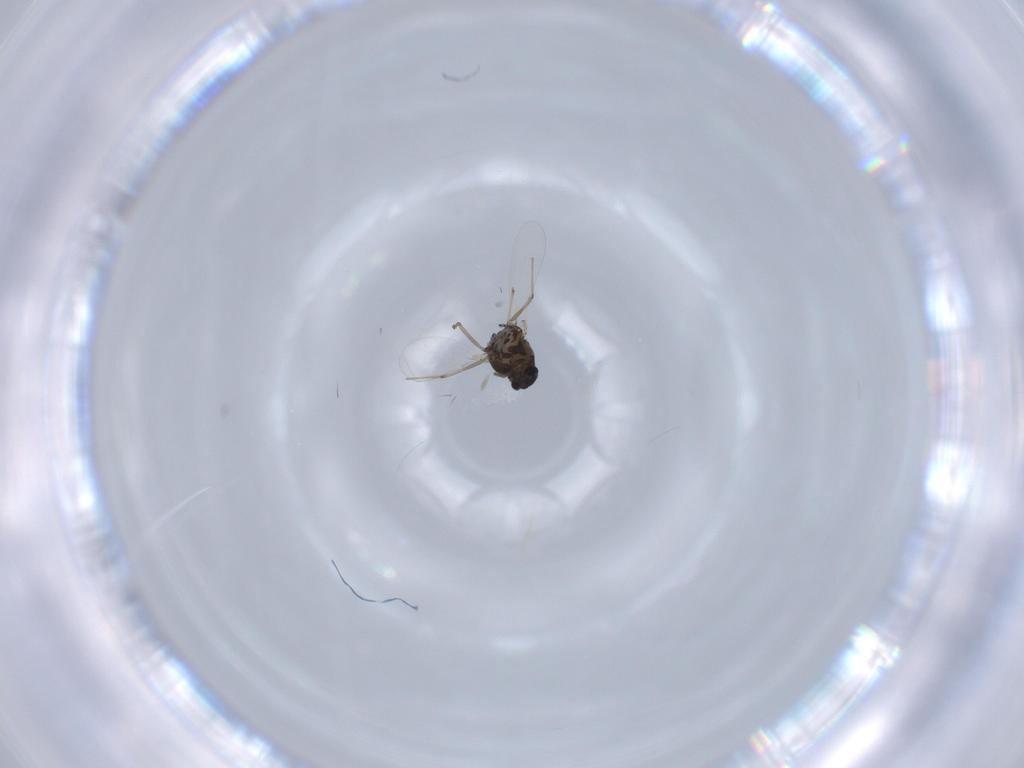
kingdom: Animalia
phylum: Arthropoda
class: Insecta
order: Diptera
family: Chironomidae
